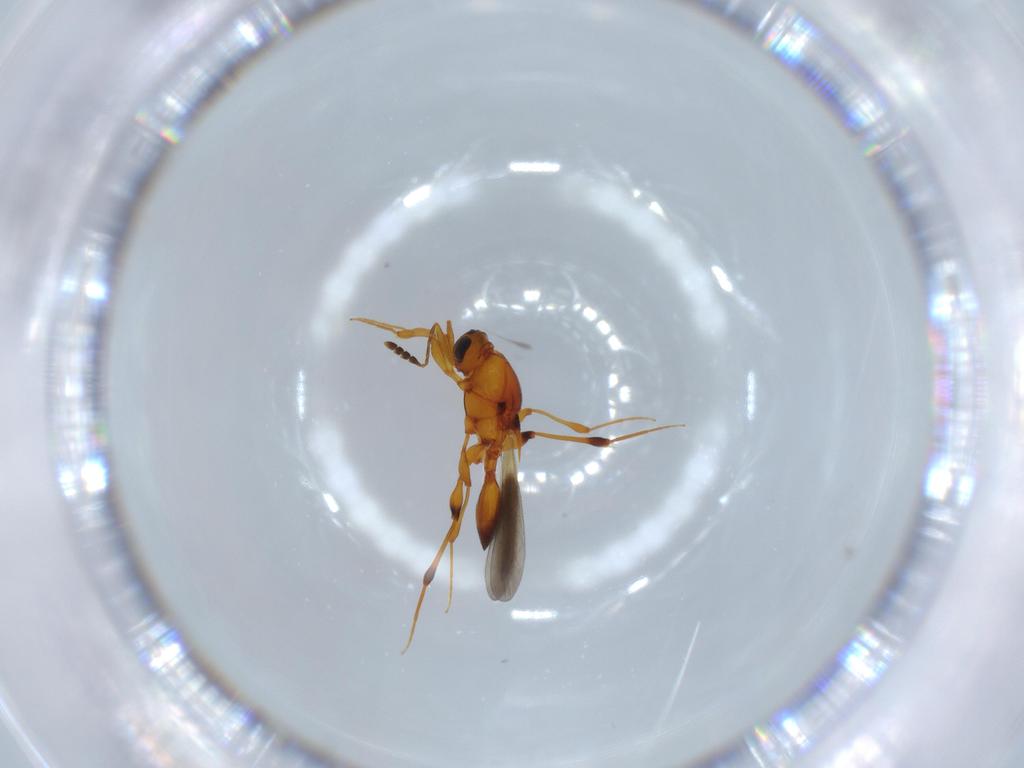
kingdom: Animalia
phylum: Arthropoda
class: Insecta
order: Hymenoptera
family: Platygastridae
